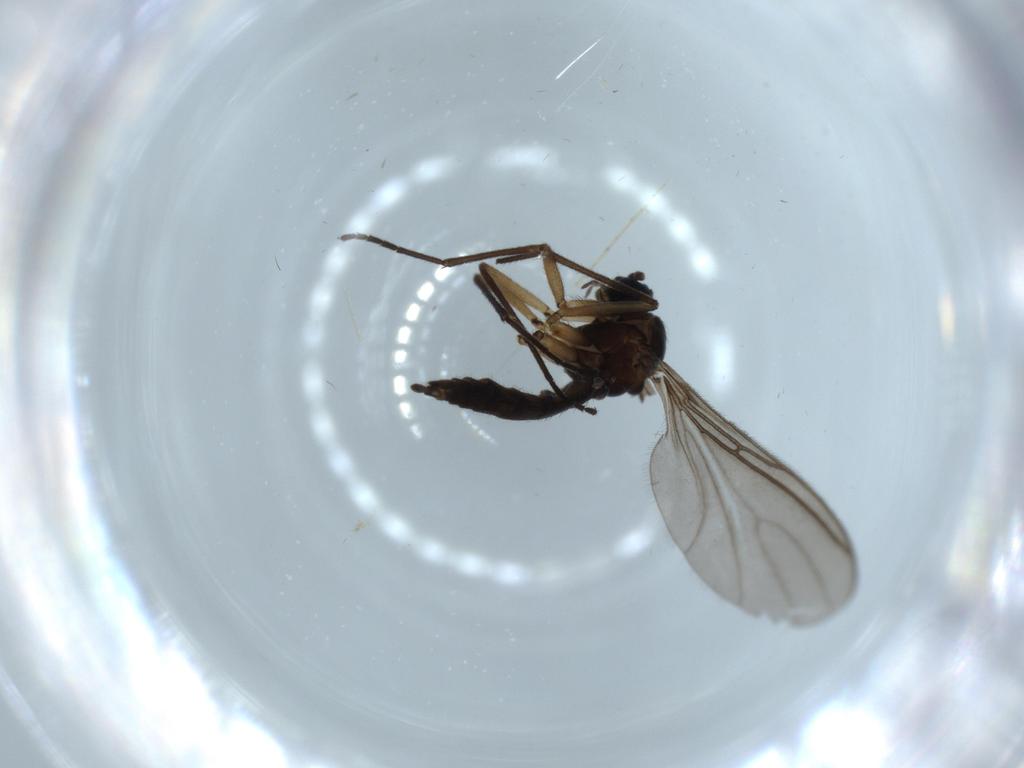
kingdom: Animalia
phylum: Arthropoda
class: Insecta
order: Diptera
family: Sciaridae
